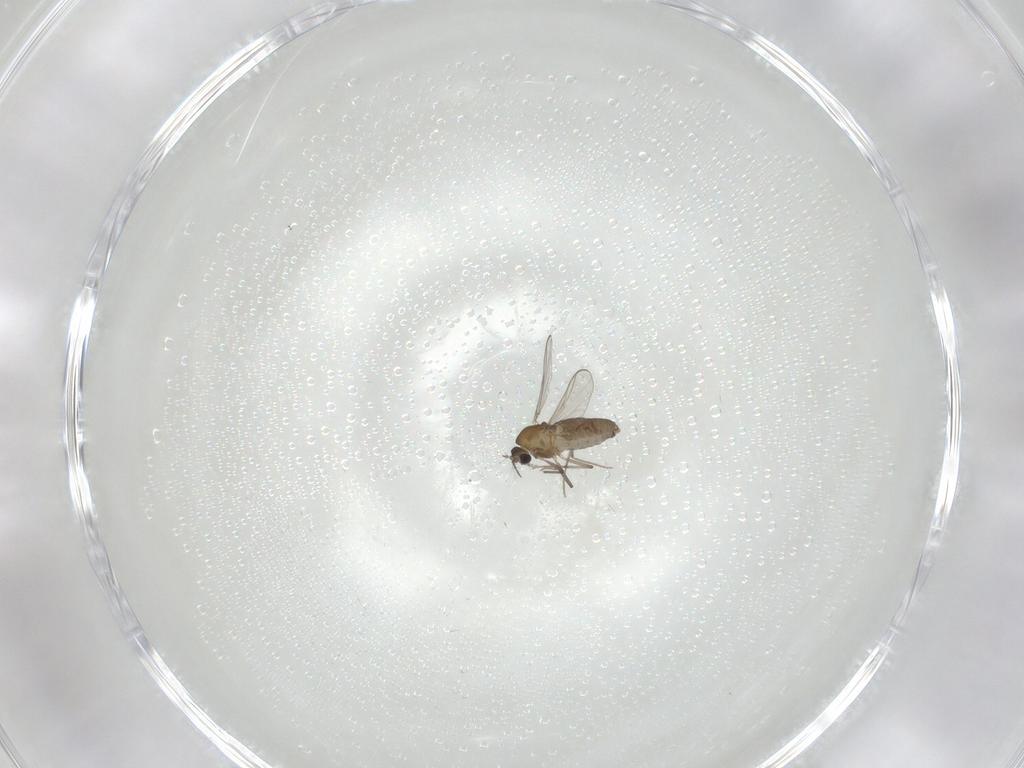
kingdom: Animalia
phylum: Arthropoda
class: Insecta
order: Diptera
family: Chironomidae
